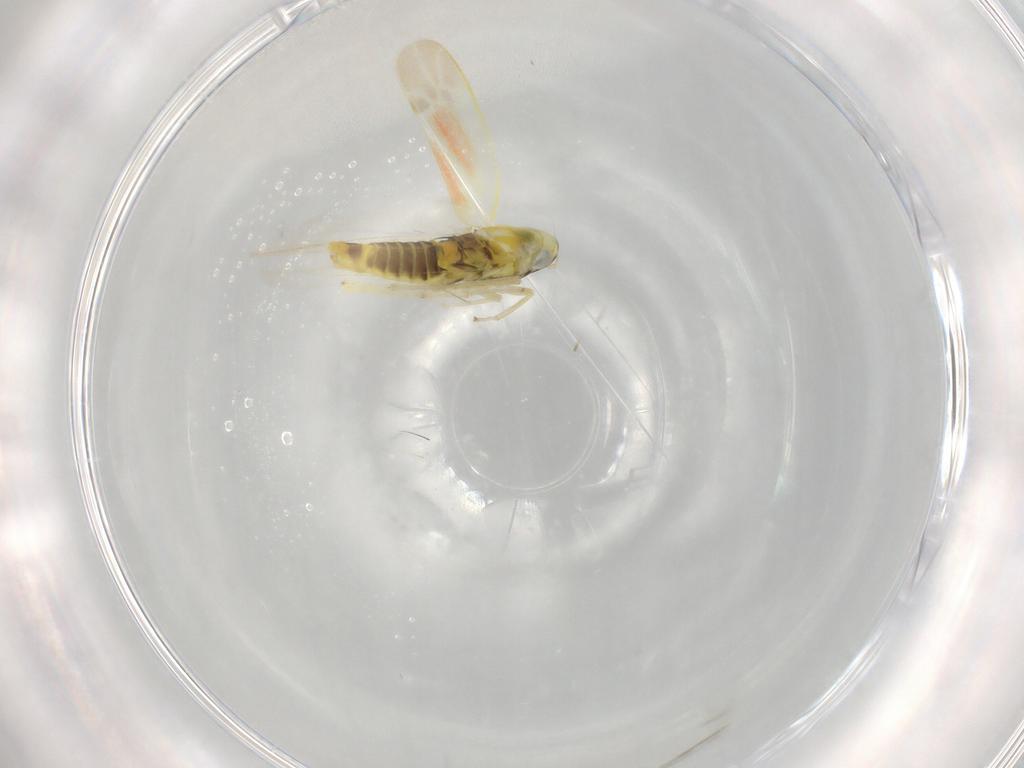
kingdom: Animalia
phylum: Arthropoda
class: Insecta
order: Hemiptera
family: Cicadellidae
